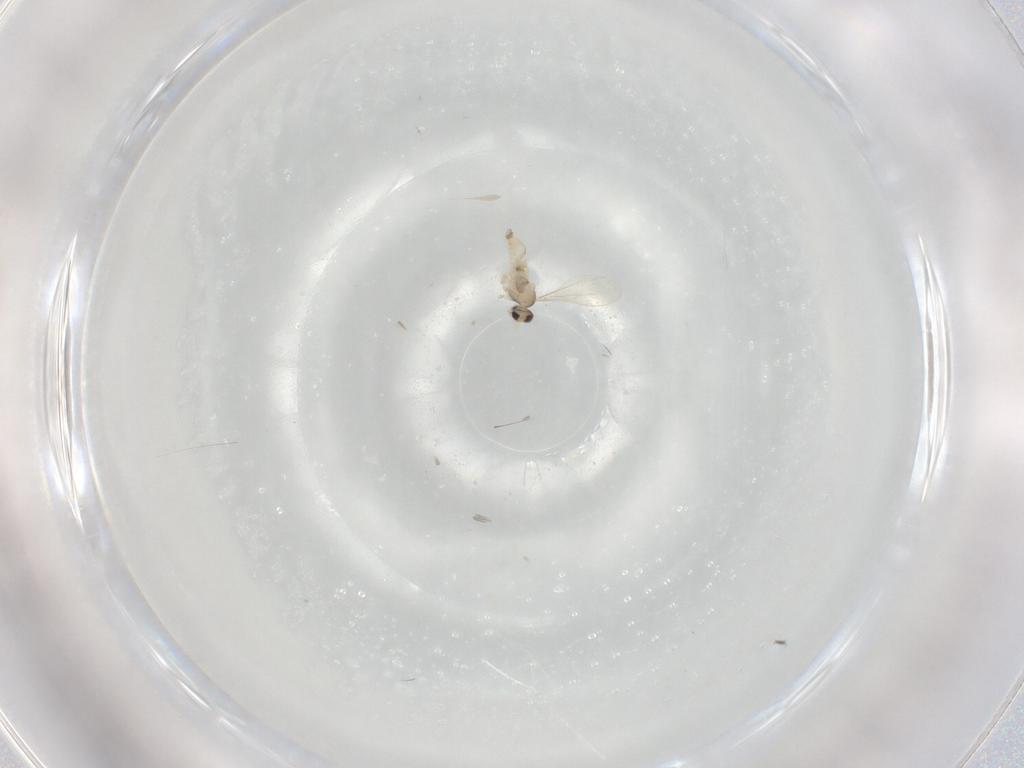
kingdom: Animalia
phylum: Arthropoda
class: Insecta
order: Diptera
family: Cecidomyiidae
